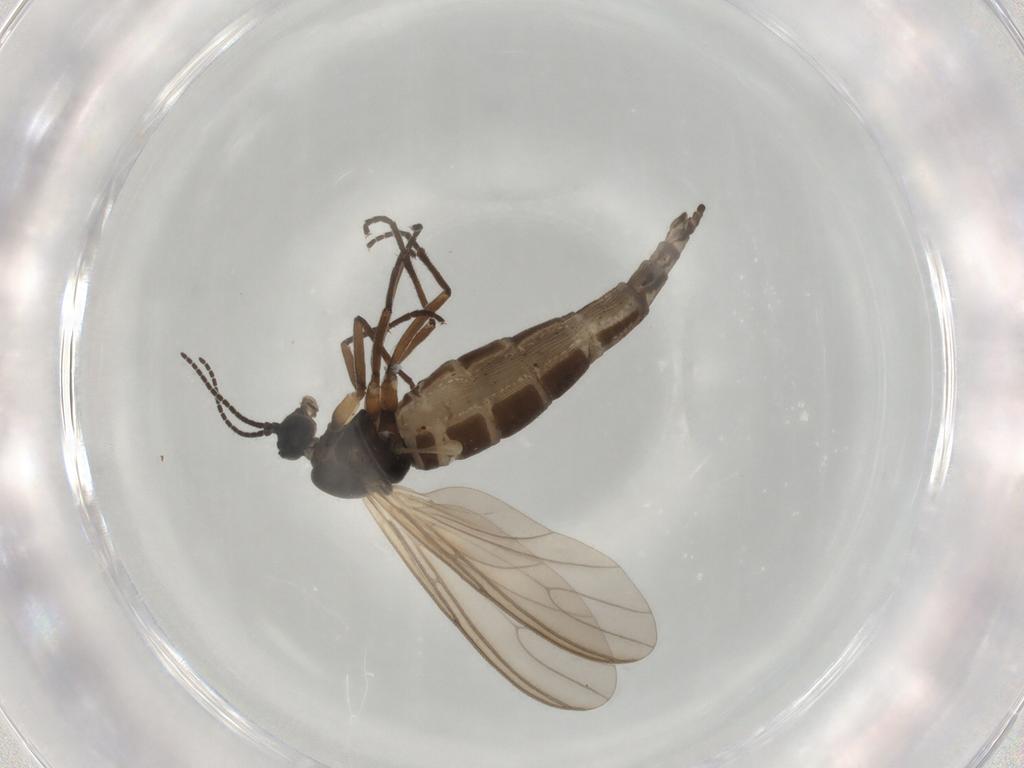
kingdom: Animalia
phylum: Arthropoda
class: Insecta
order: Diptera
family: Sciaridae
